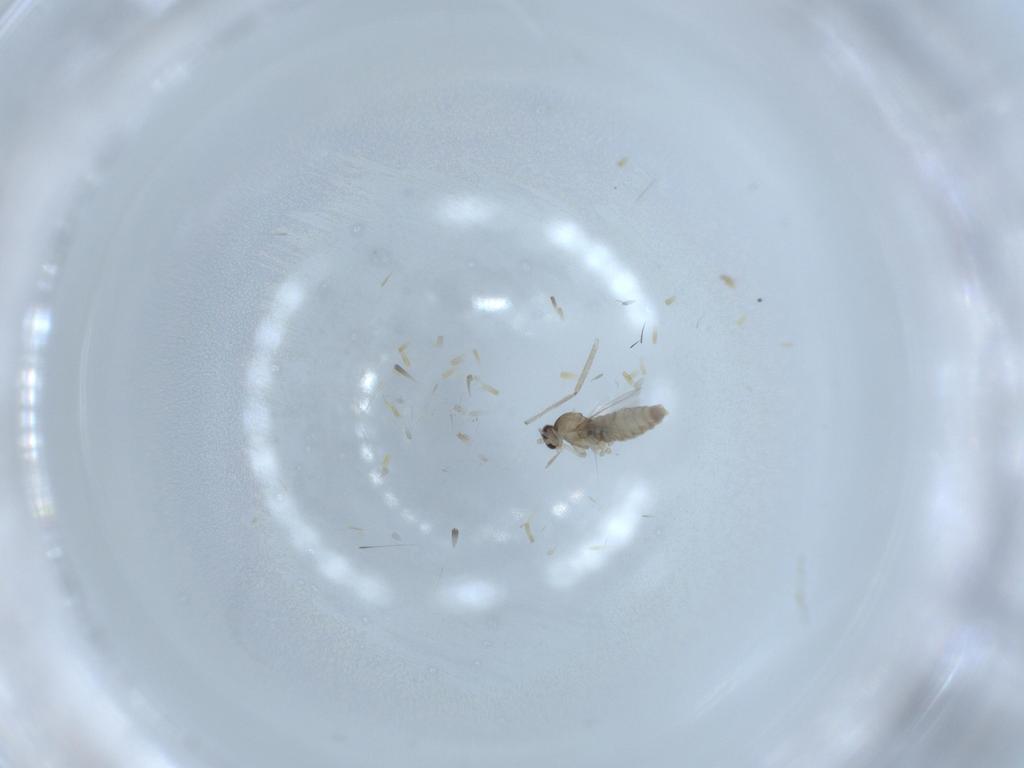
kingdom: Animalia
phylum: Arthropoda
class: Insecta
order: Diptera
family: Cecidomyiidae
